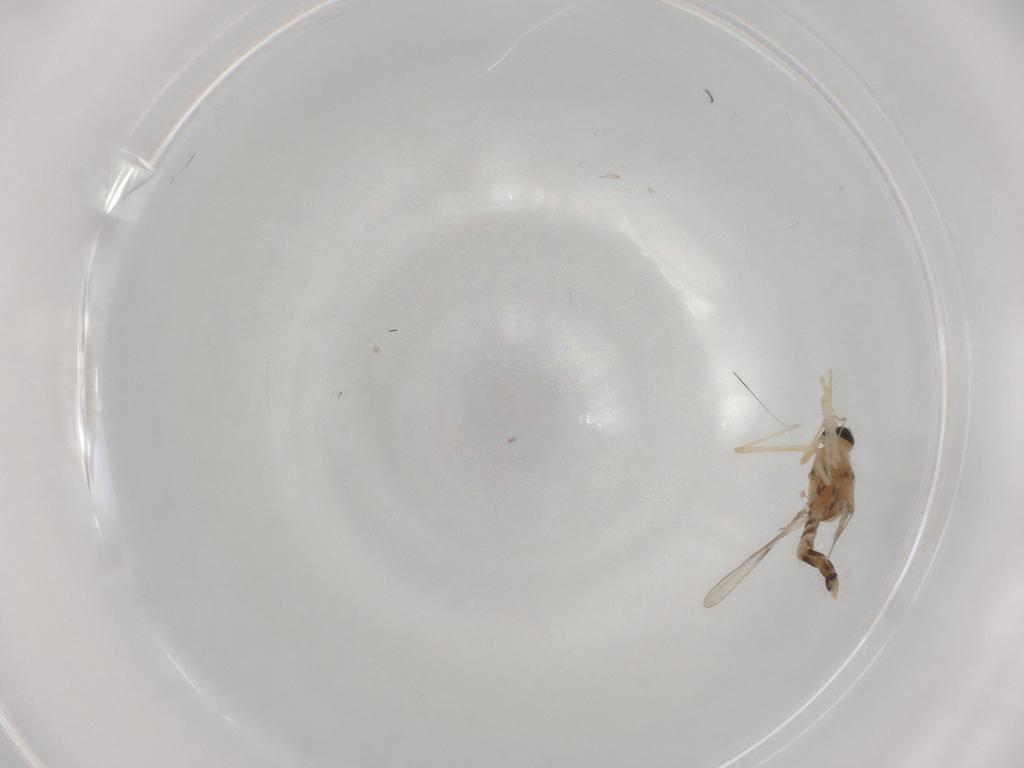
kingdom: Animalia
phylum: Arthropoda
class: Insecta
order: Diptera
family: Chironomidae
